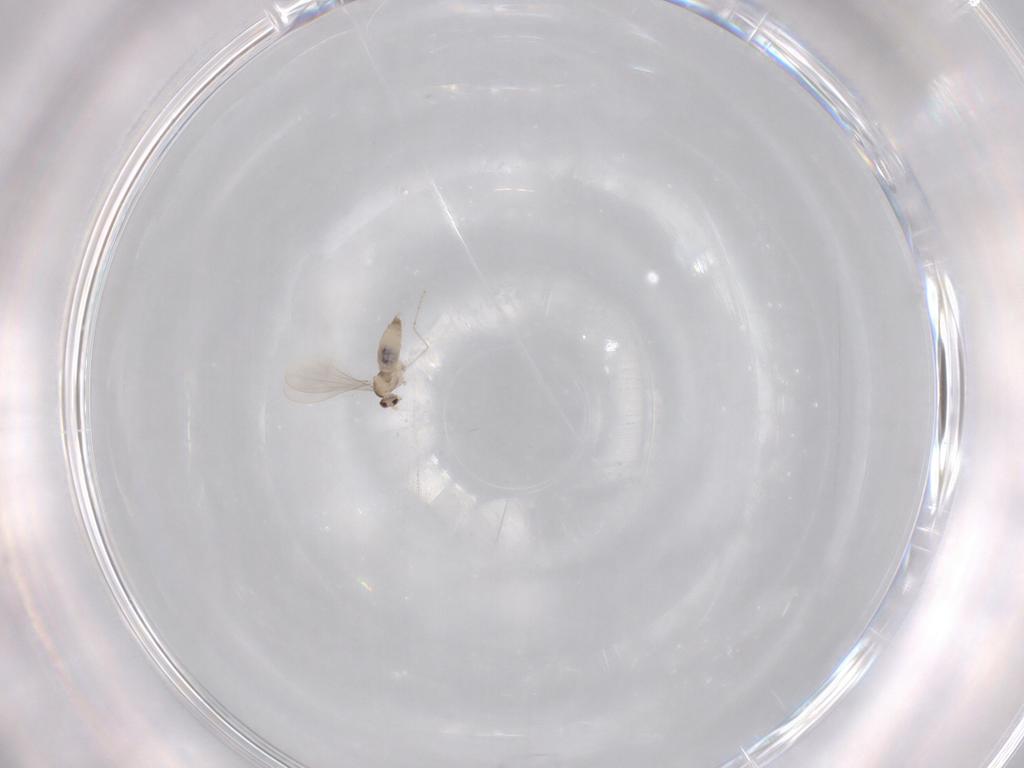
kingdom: Animalia
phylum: Arthropoda
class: Insecta
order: Diptera
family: Cecidomyiidae
